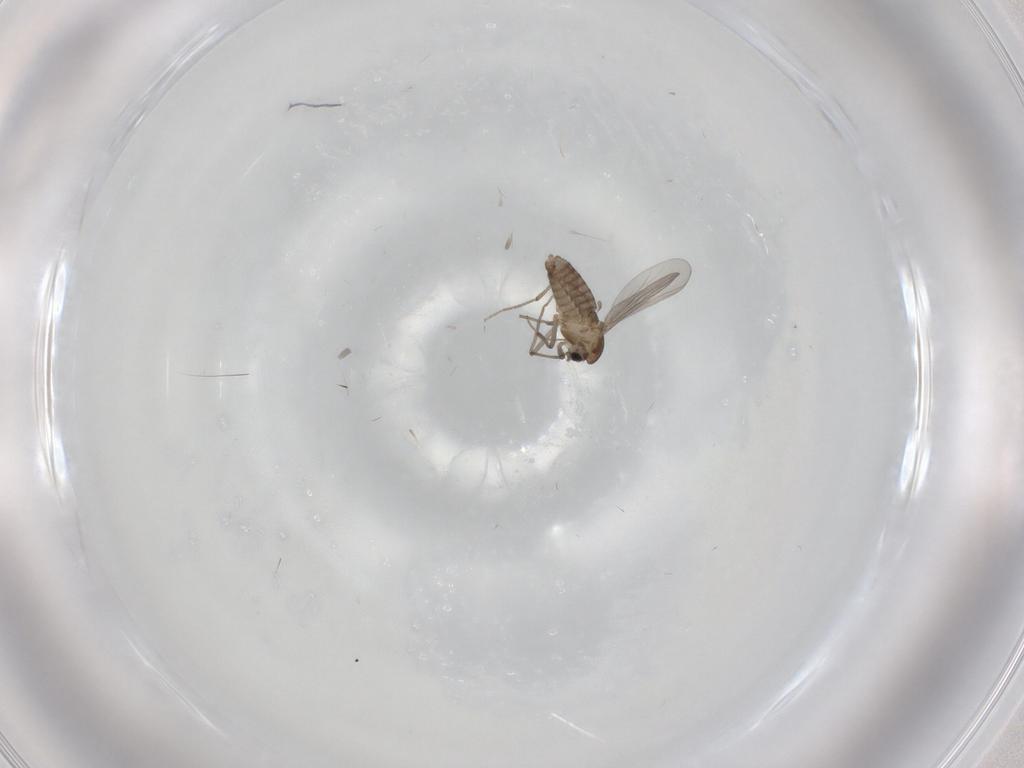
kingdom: Animalia
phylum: Arthropoda
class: Insecta
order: Diptera
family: Chironomidae
